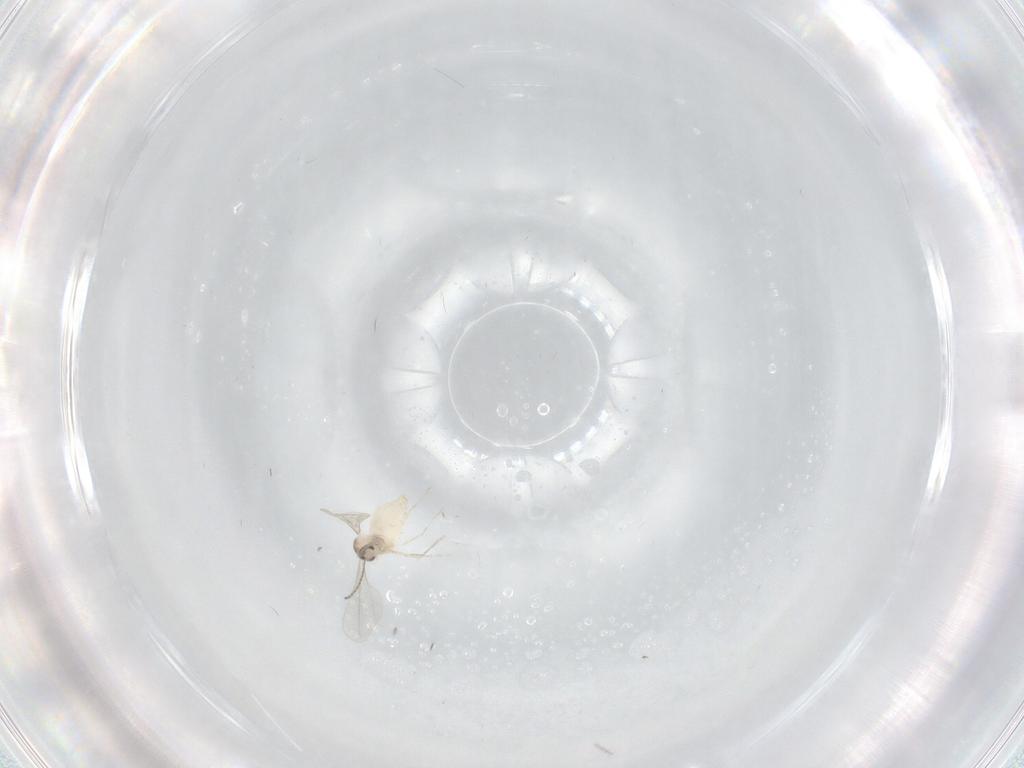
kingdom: Animalia
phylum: Arthropoda
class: Insecta
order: Diptera
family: Cecidomyiidae
